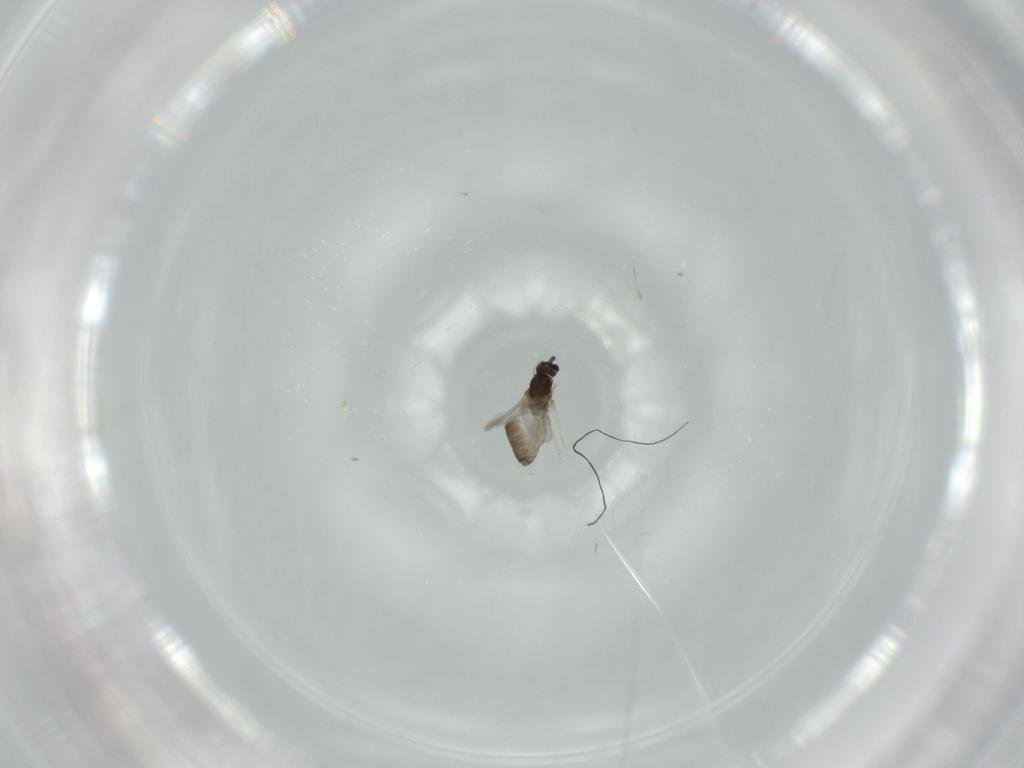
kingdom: Animalia
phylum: Arthropoda
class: Insecta
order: Diptera
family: Cecidomyiidae
